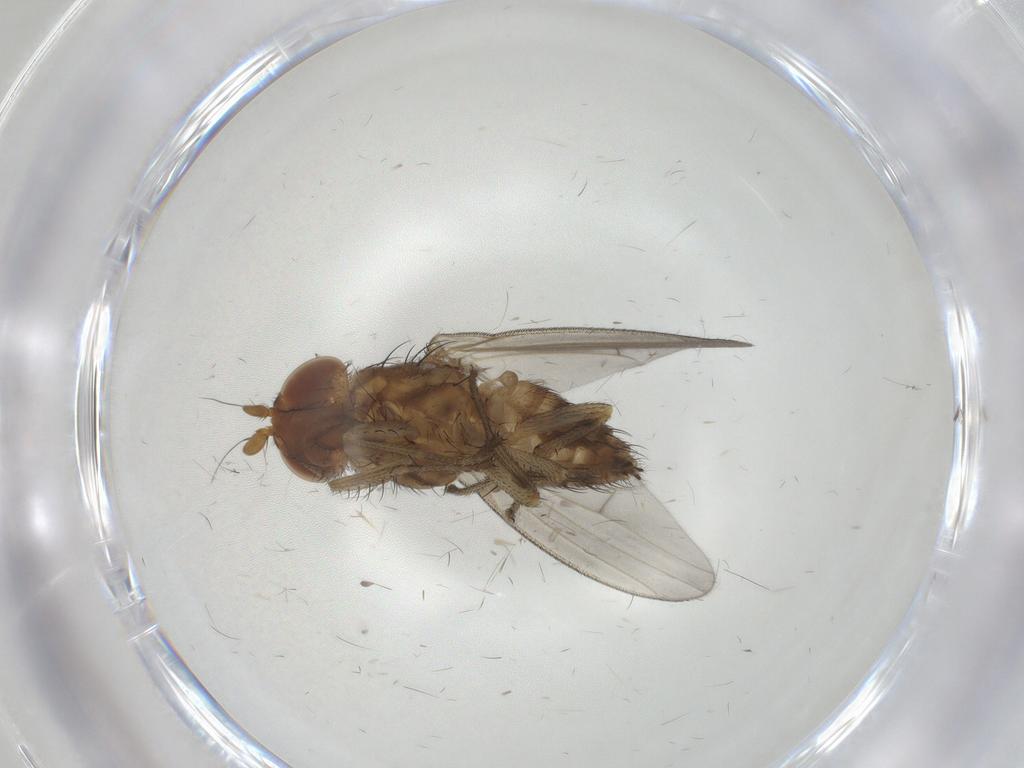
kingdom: Animalia
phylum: Arthropoda
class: Insecta
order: Diptera
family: Lauxaniidae
